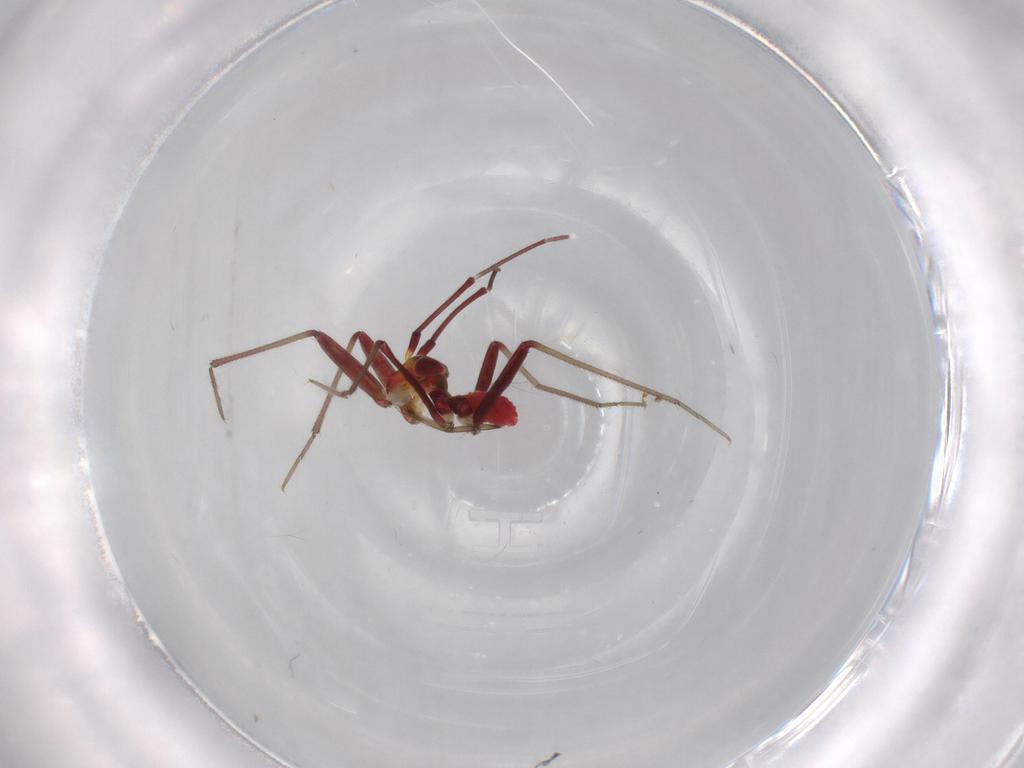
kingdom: Animalia
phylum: Arthropoda
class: Insecta
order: Hemiptera
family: Miridae
